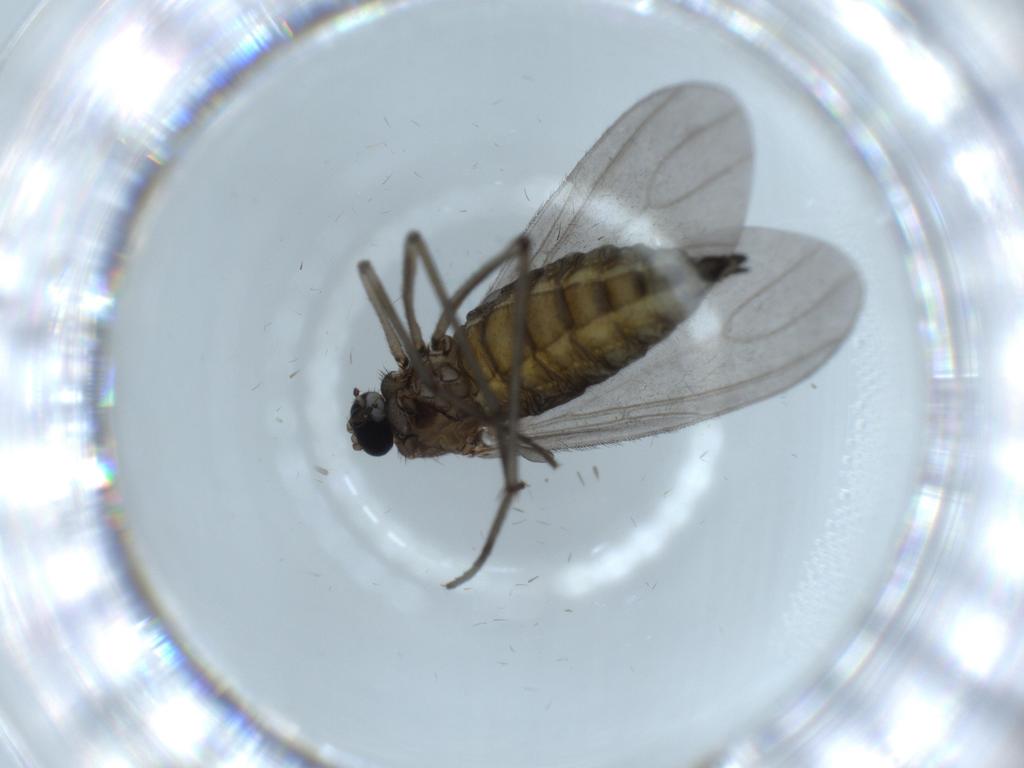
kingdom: Animalia
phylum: Arthropoda
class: Insecta
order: Diptera
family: Sciaridae
